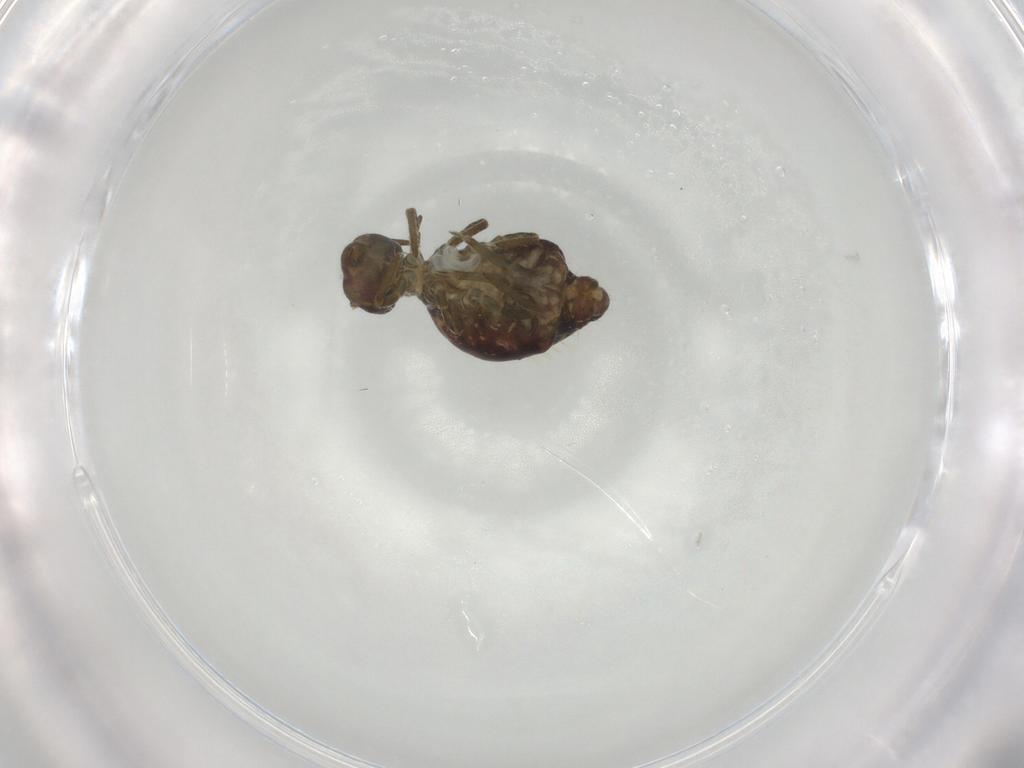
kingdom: Animalia
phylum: Arthropoda
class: Collembola
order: Symphypleona
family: Sminthuridae
